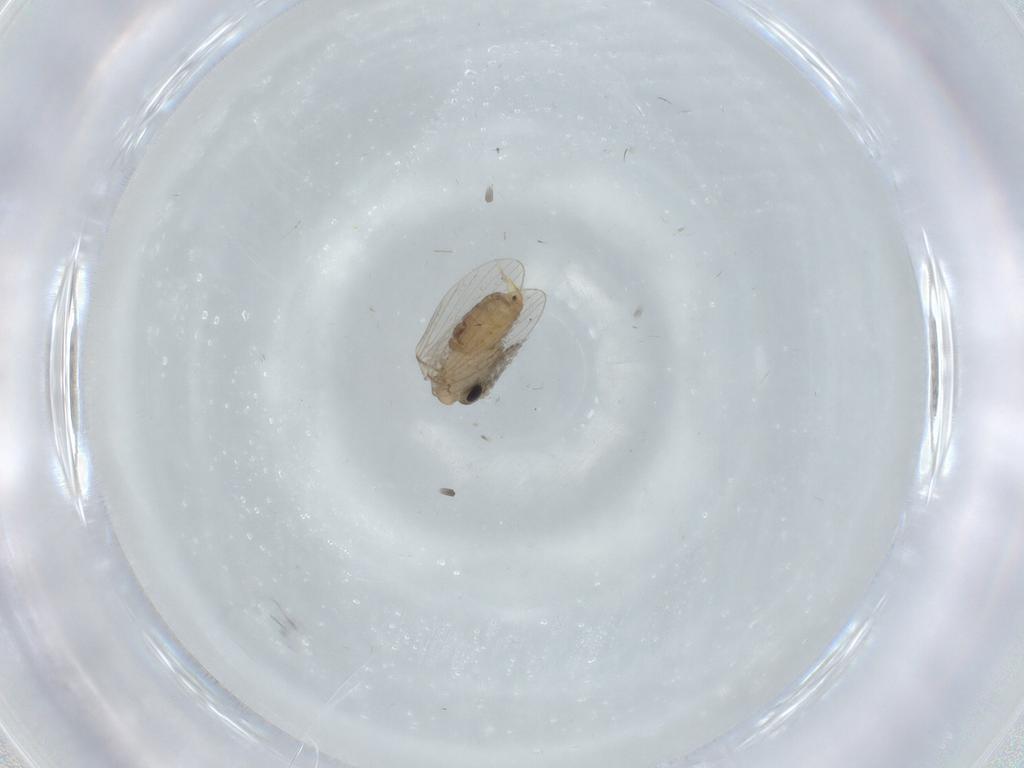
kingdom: Animalia
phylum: Arthropoda
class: Insecta
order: Diptera
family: Psychodidae
